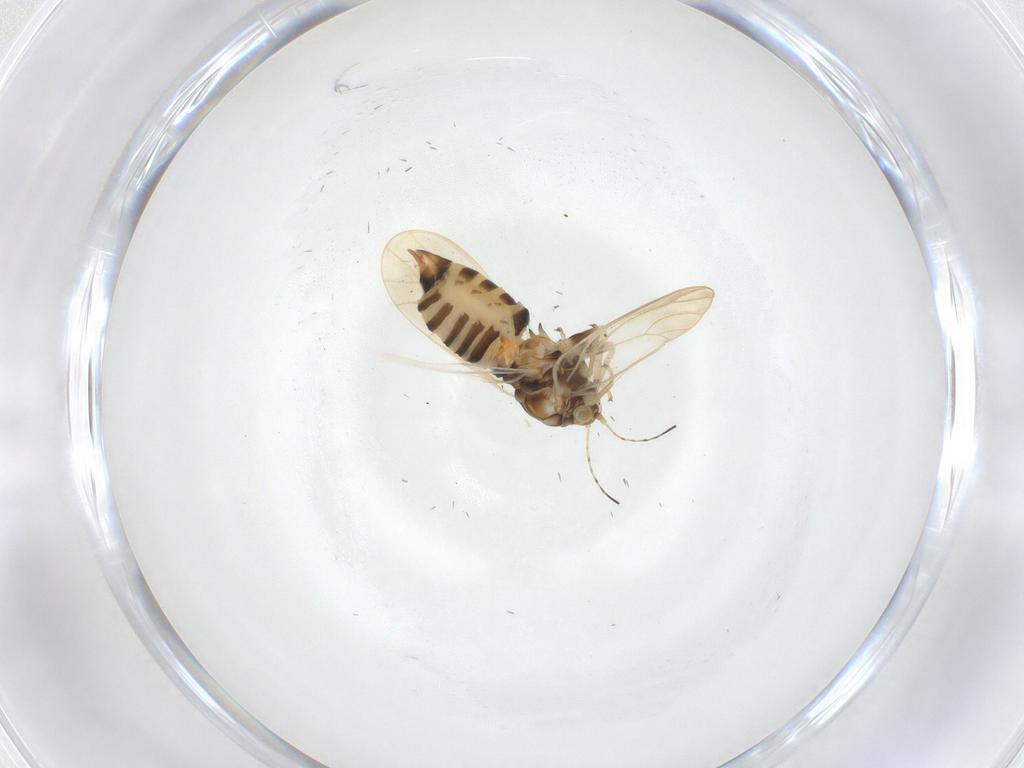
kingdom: Animalia
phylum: Arthropoda
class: Insecta
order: Hemiptera
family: Miridae
